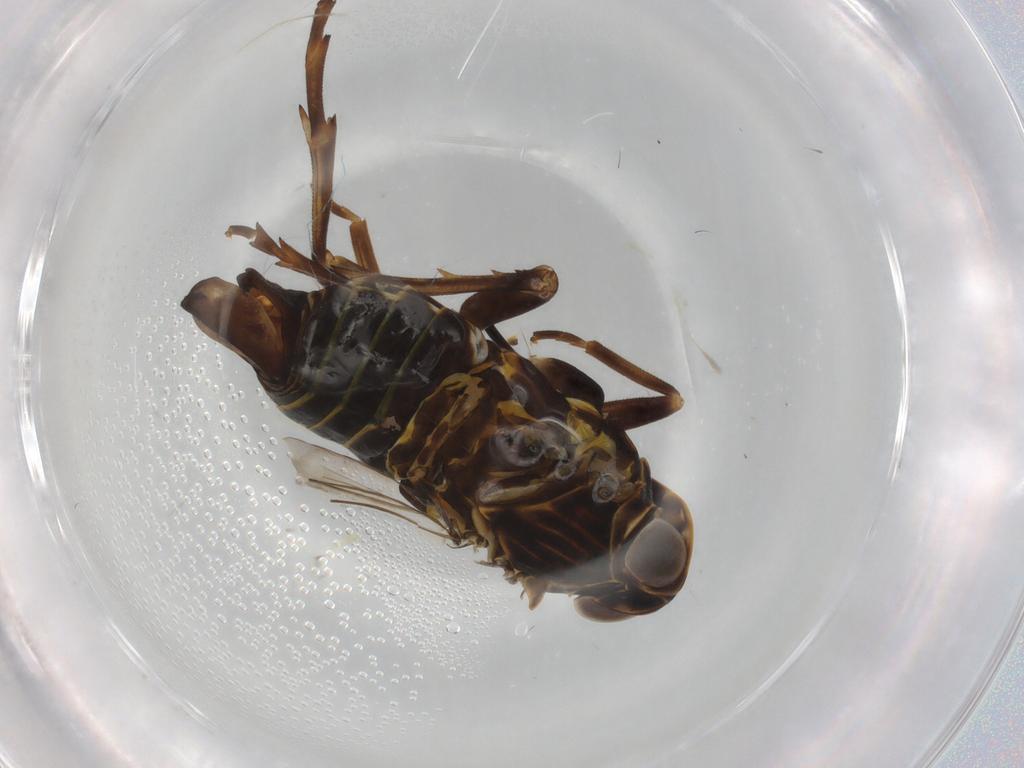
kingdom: Animalia
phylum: Arthropoda
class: Insecta
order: Hemiptera
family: Cixiidae
